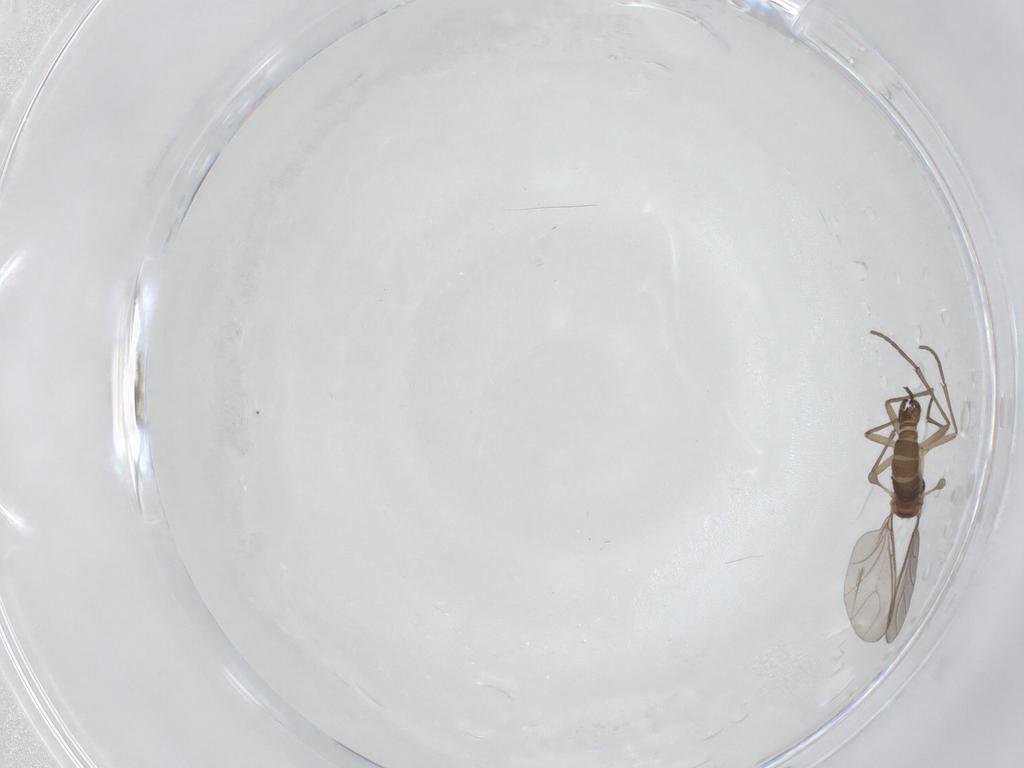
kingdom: Animalia
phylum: Arthropoda
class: Insecta
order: Diptera
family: Sciaridae
